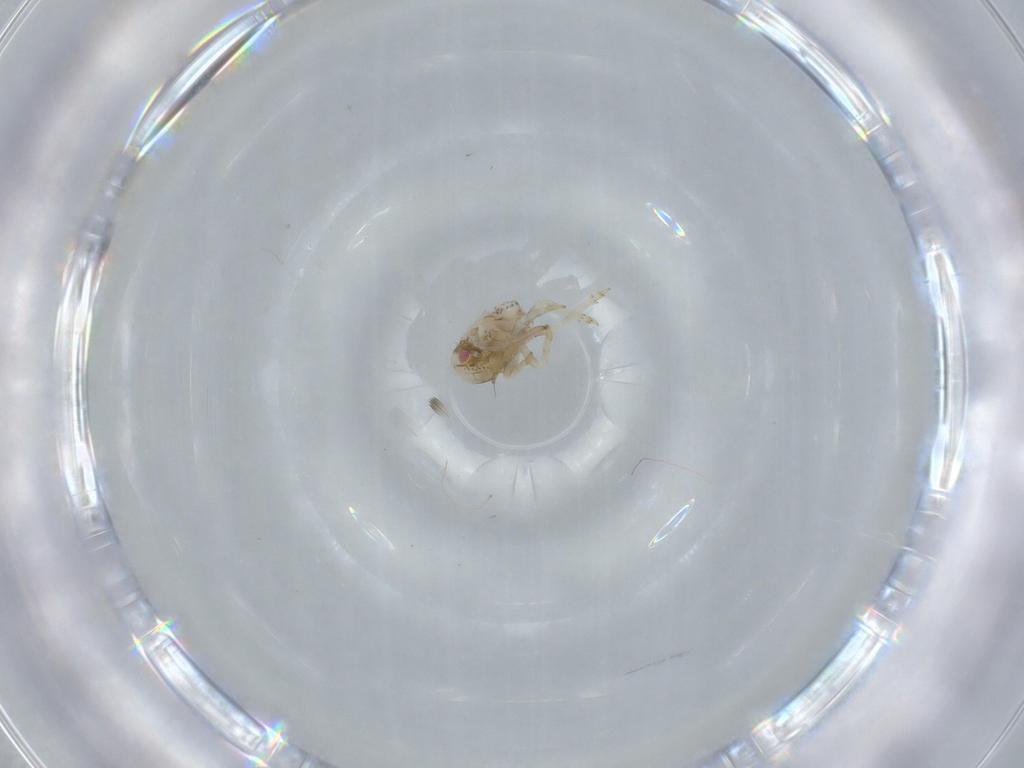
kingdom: Animalia
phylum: Arthropoda
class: Insecta
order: Hemiptera
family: Acanaloniidae
